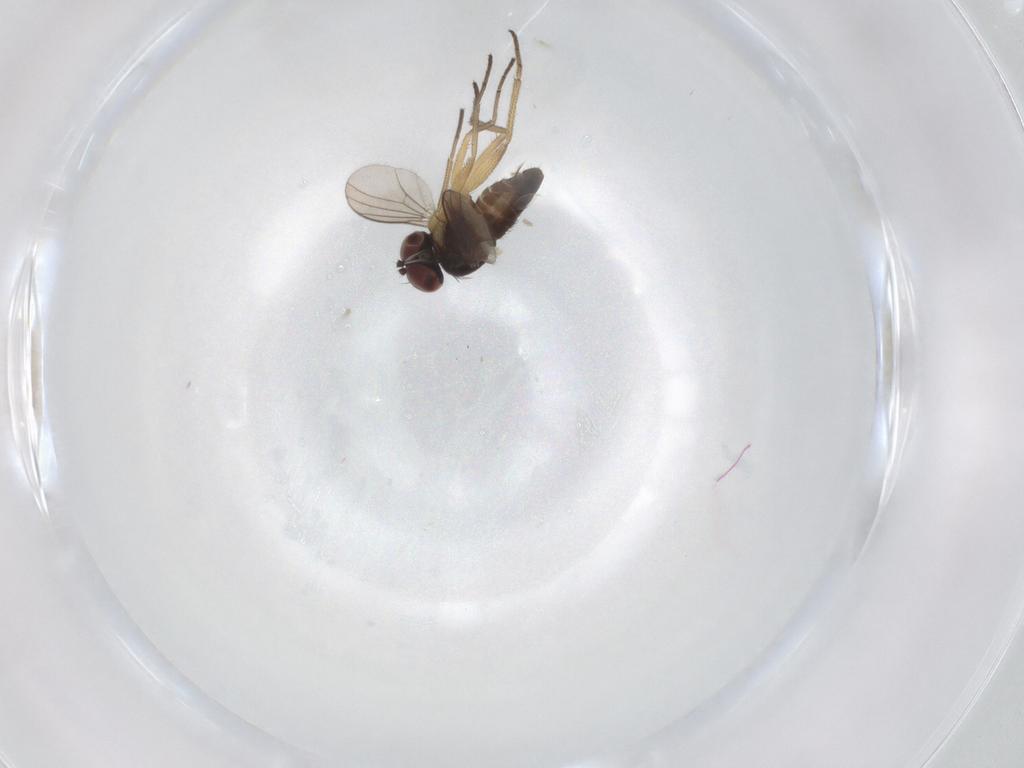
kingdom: Animalia
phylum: Arthropoda
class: Insecta
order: Diptera
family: Dolichopodidae
